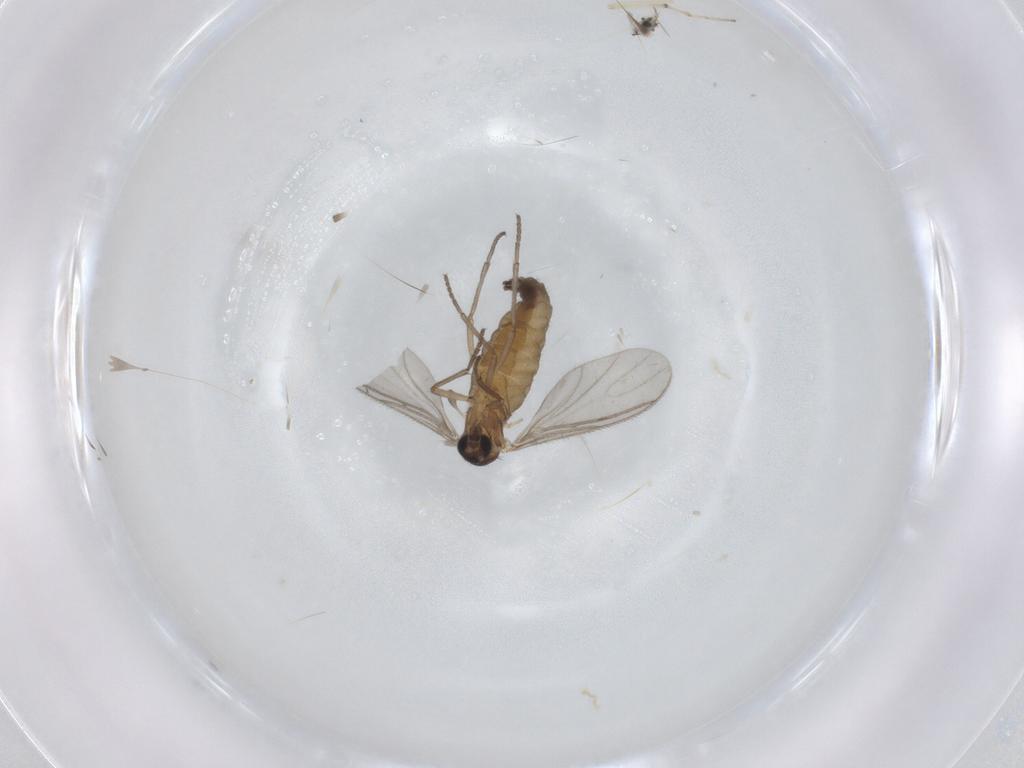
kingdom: Animalia
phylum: Arthropoda
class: Insecta
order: Diptera
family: Sciaridae
